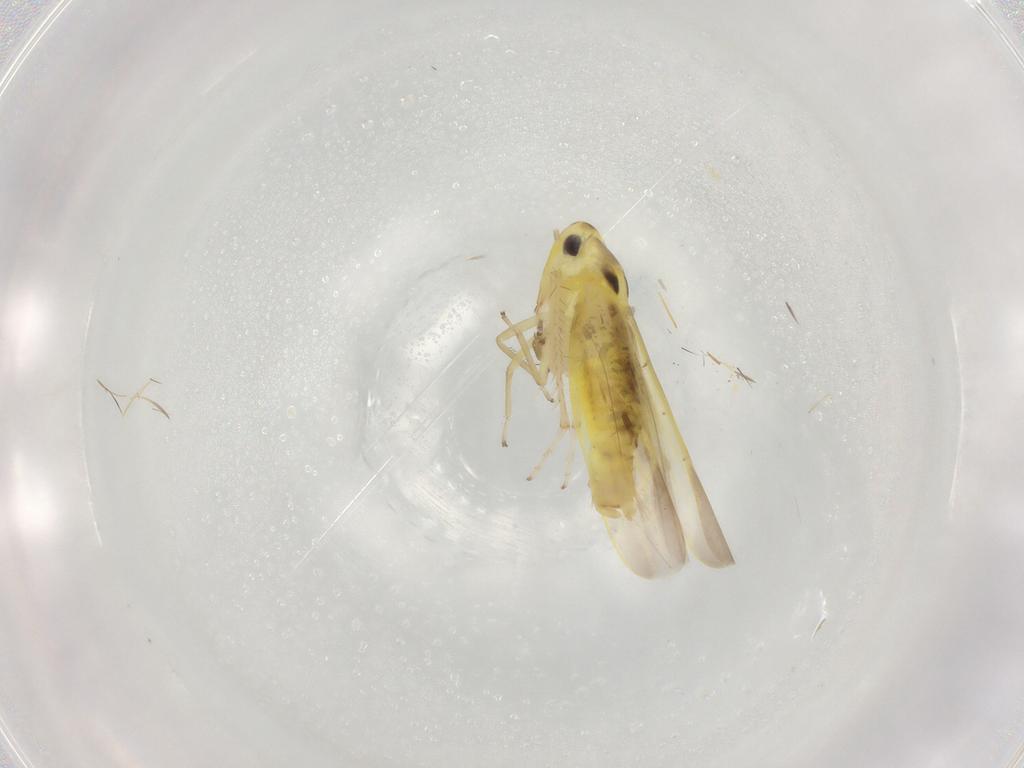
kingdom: Animalia
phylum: Arthropoda
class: Insecta
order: Hemiptera
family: Cicadellidae
